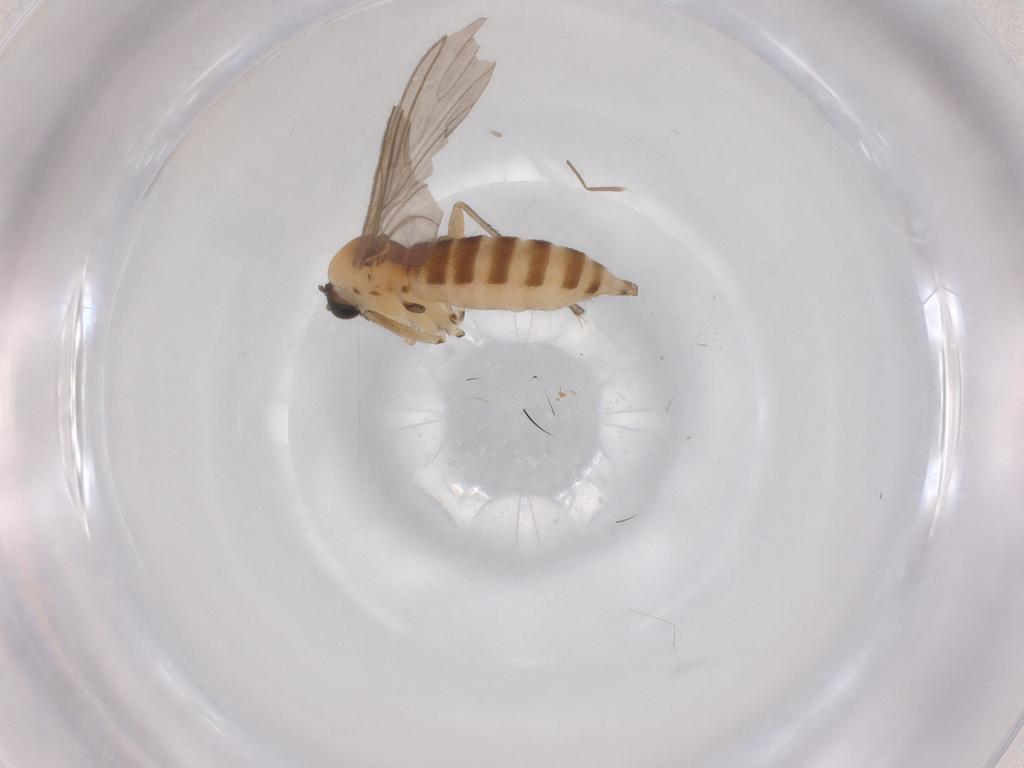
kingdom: Animalia
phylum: Arthropoda
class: Insecta
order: Diptera
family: Sciaridae
